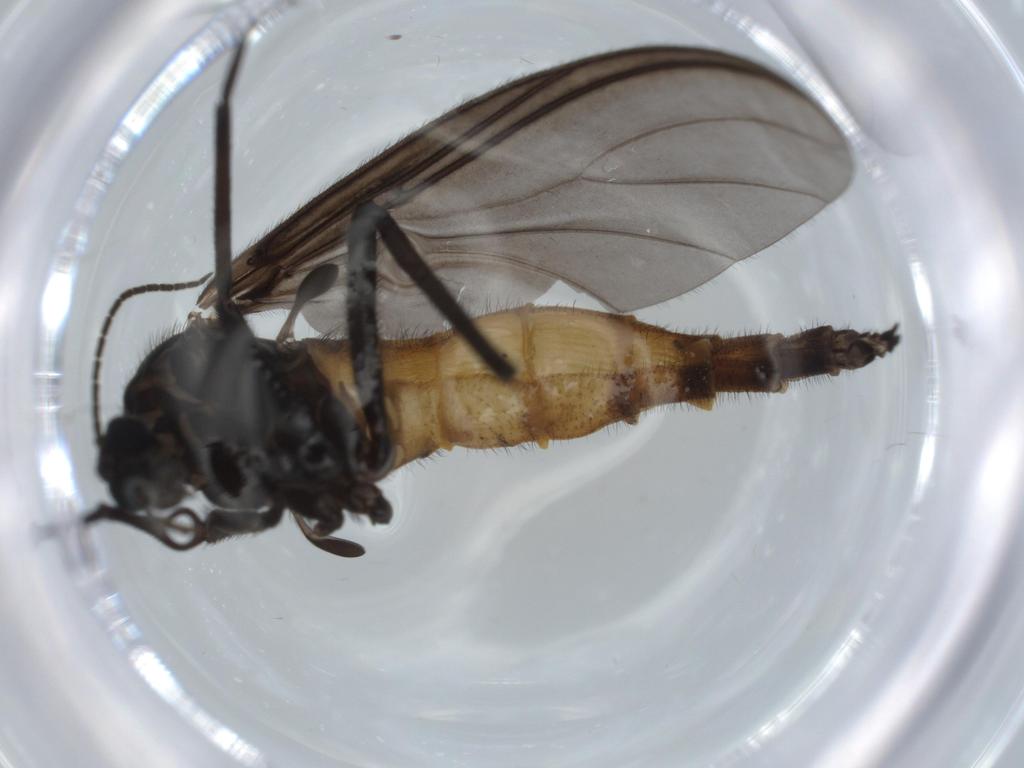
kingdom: Animalia
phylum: Arthropoda
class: Insecta
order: Diptera
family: Sciaridae
